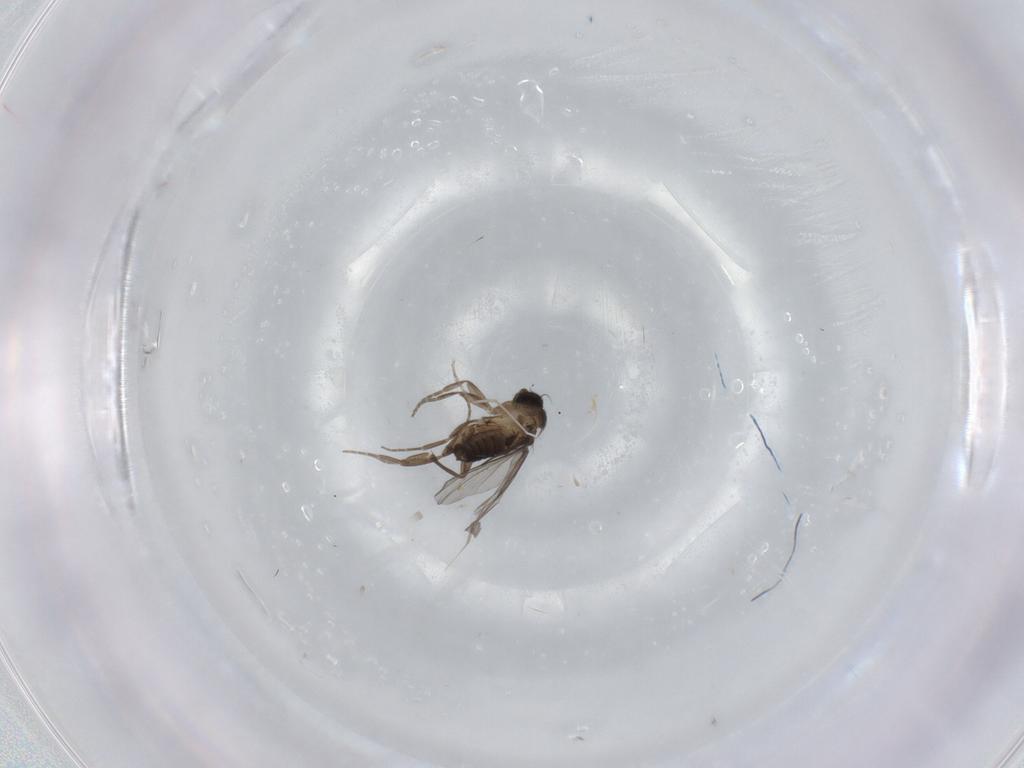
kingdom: Animalia
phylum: Arthropoda
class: Insecta
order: Diptera
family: Cecidomyiidae
